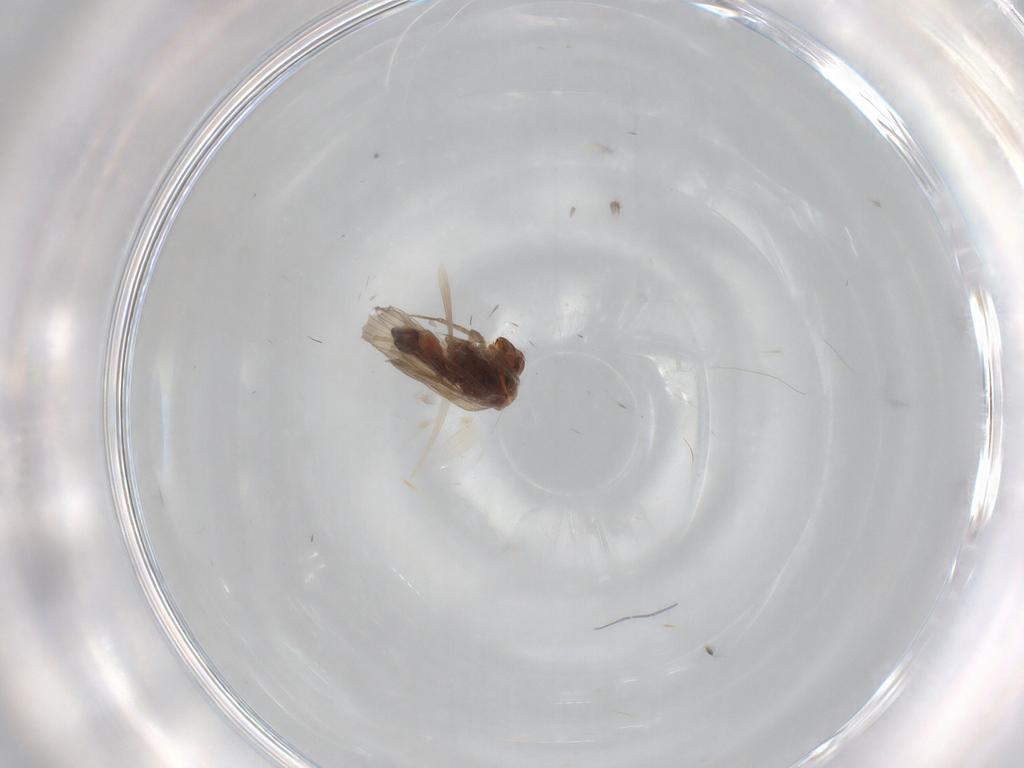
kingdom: Animalia
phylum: Arthropoda
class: Insecta
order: Psocodea
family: Lepidopsocidae
